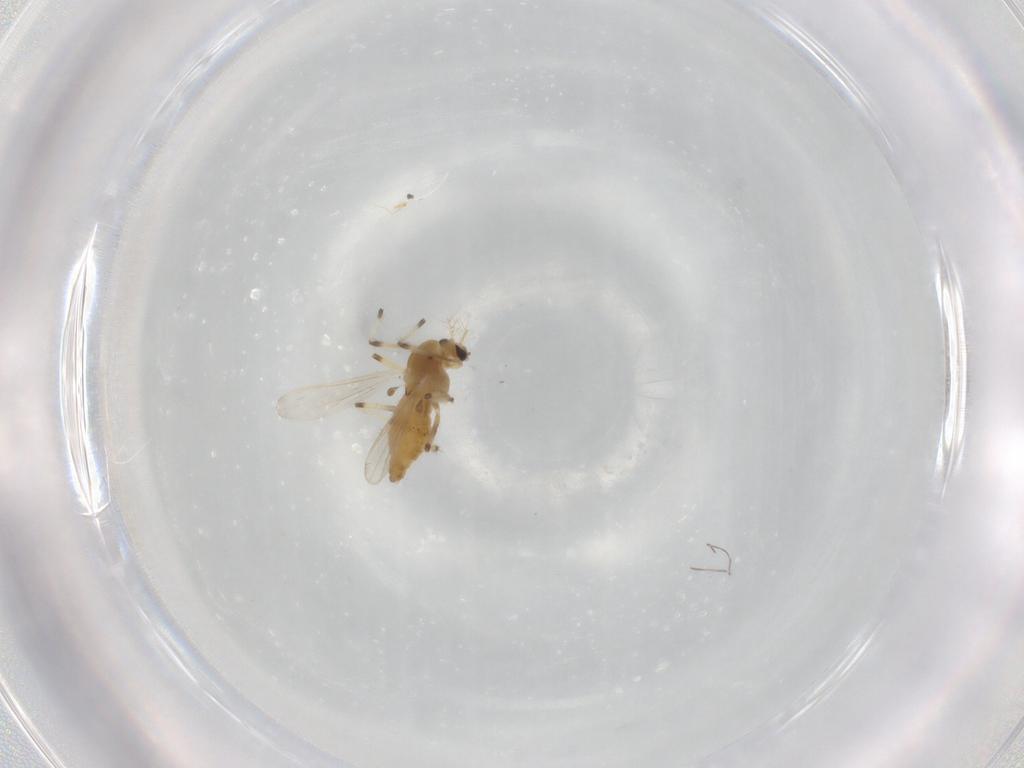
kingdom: Animalia
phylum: Arthropoda
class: Insecta
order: Diptera
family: Chironomidae
